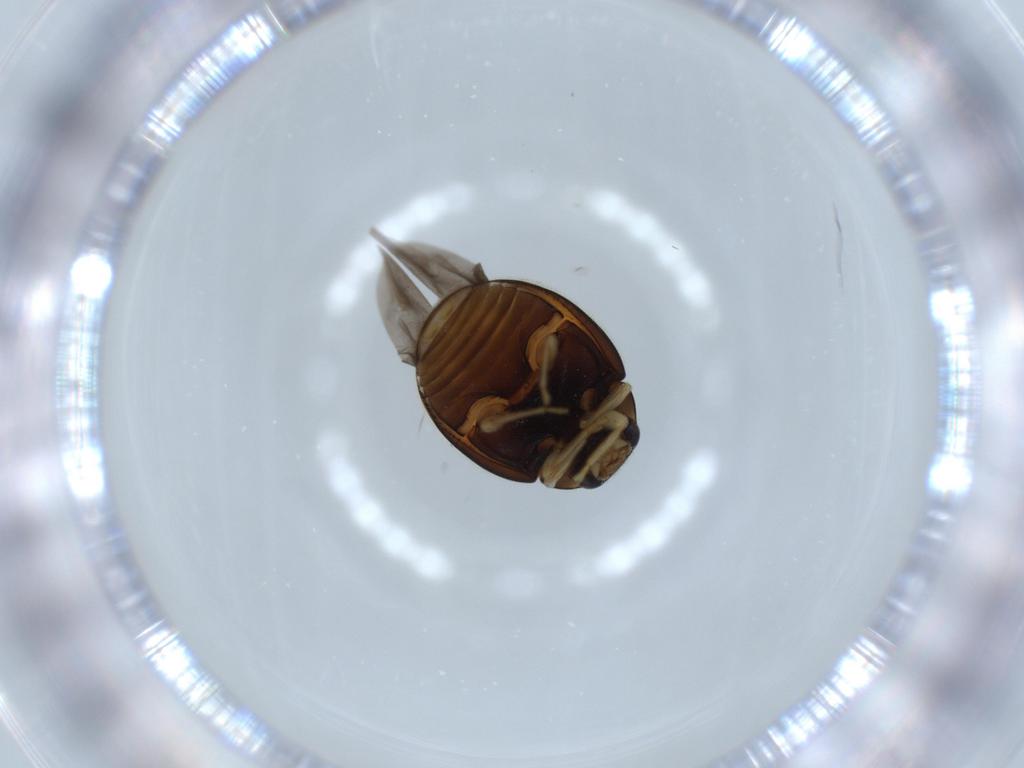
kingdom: Animalia
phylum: Arthropoda
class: Insecta
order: Coleoptera
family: Coccinellidae
